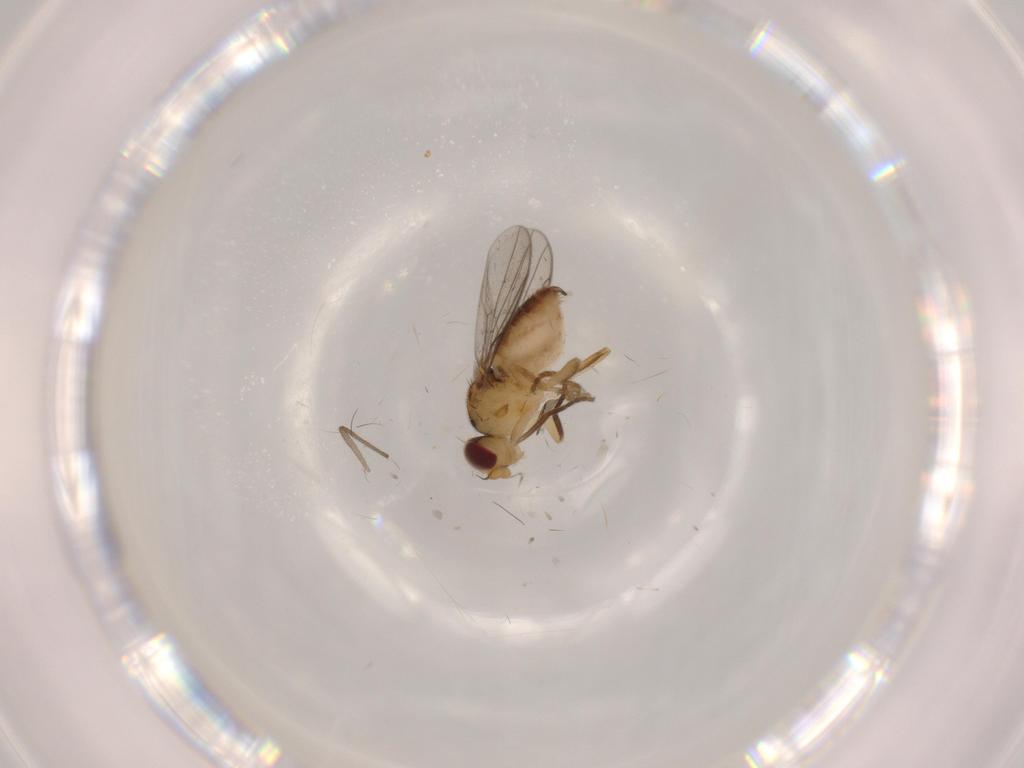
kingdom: Animalia
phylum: Arthropoda
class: Insecta
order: Diptera
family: Chloropidae
